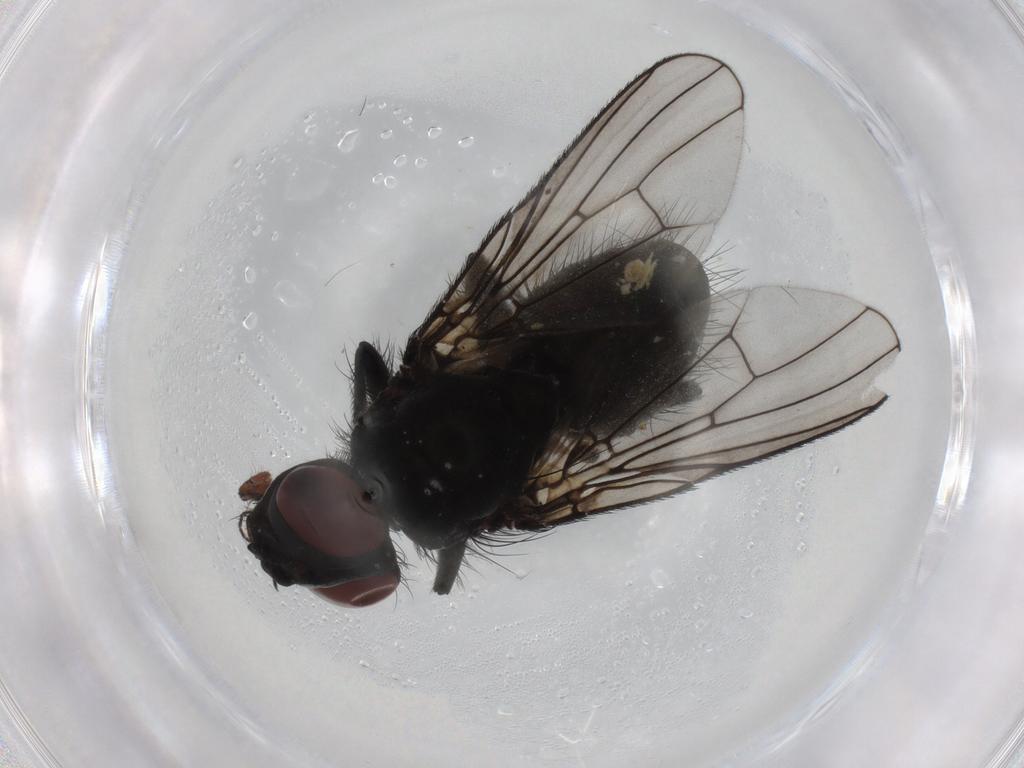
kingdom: Animalia
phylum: Arthropoda
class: Insecta
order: Diptera
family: Muscidae
